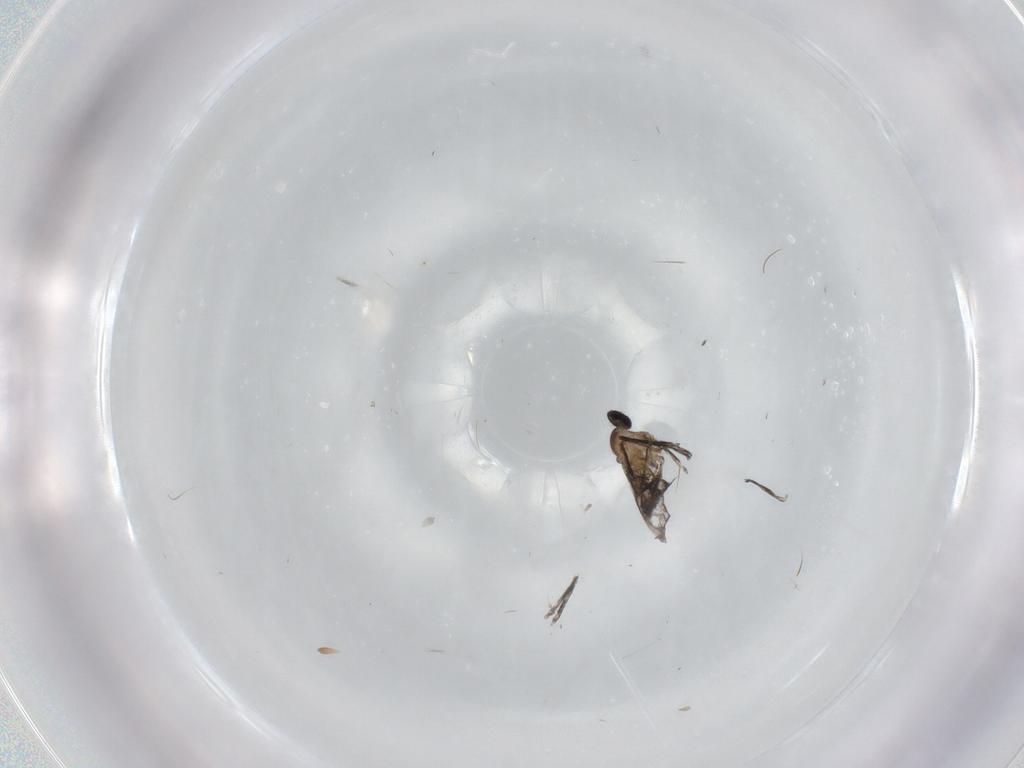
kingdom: Animalia
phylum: Arthropoda
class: Insecta
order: Diptera
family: Cecidomyiidae
